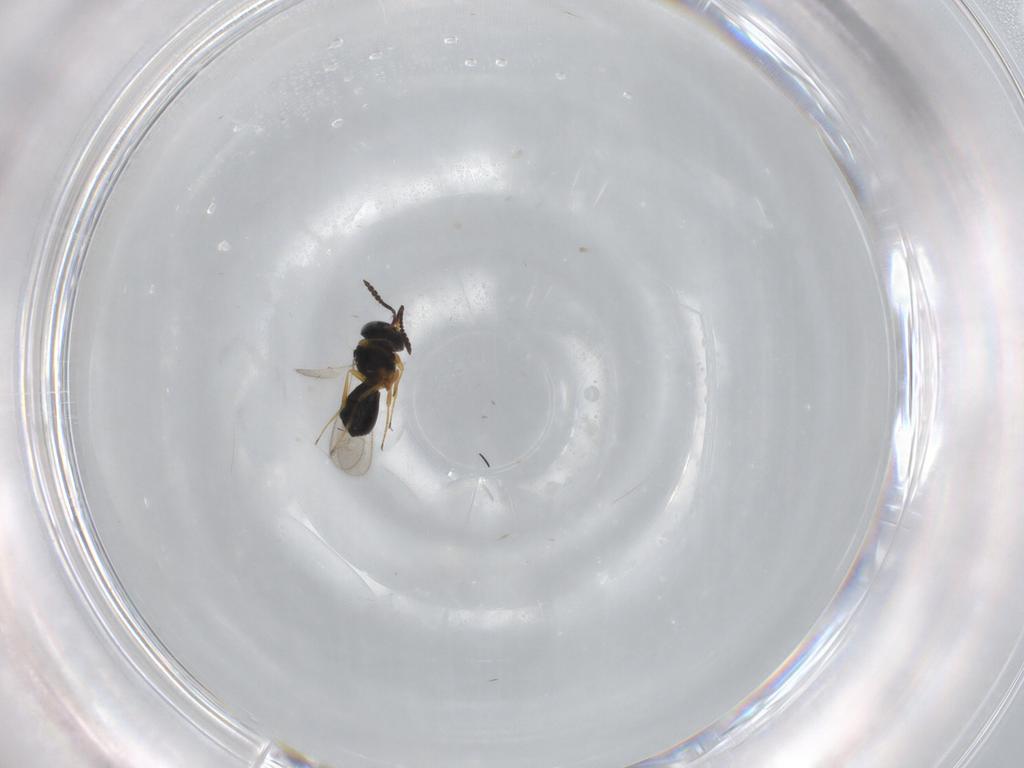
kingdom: Animalia
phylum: Arthropoda
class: Insecta
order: Hymenoptera
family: Scelionidae
